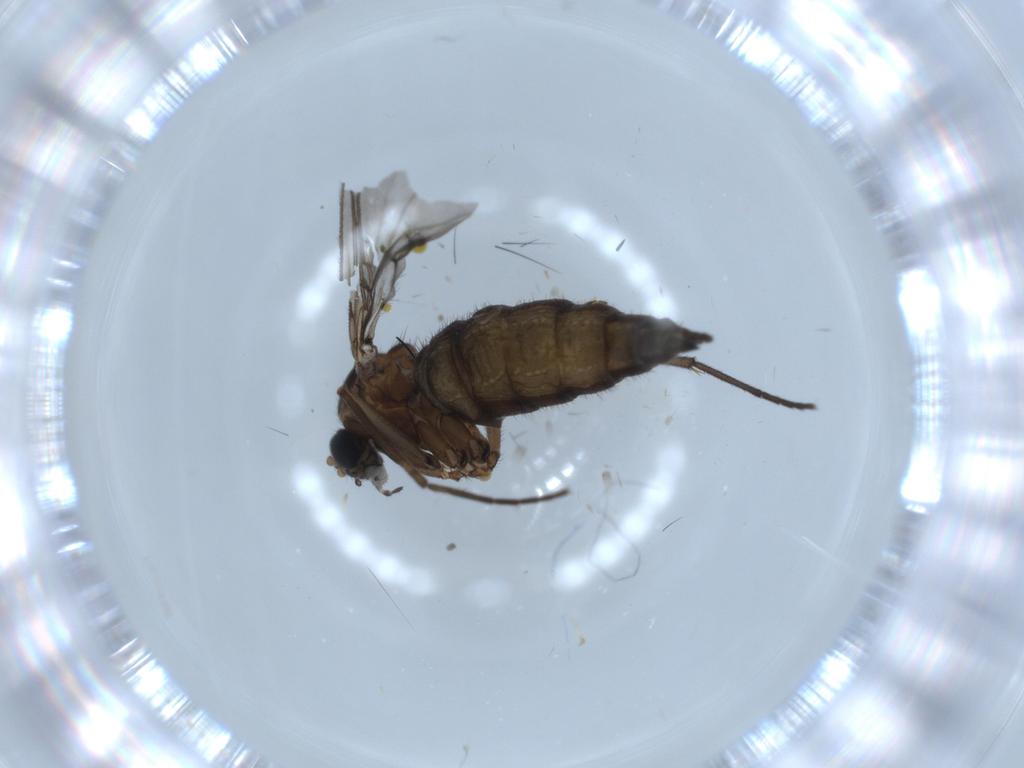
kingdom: Animalia
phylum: Arthropoda
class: Insecta
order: Diptera
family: Phoridae
